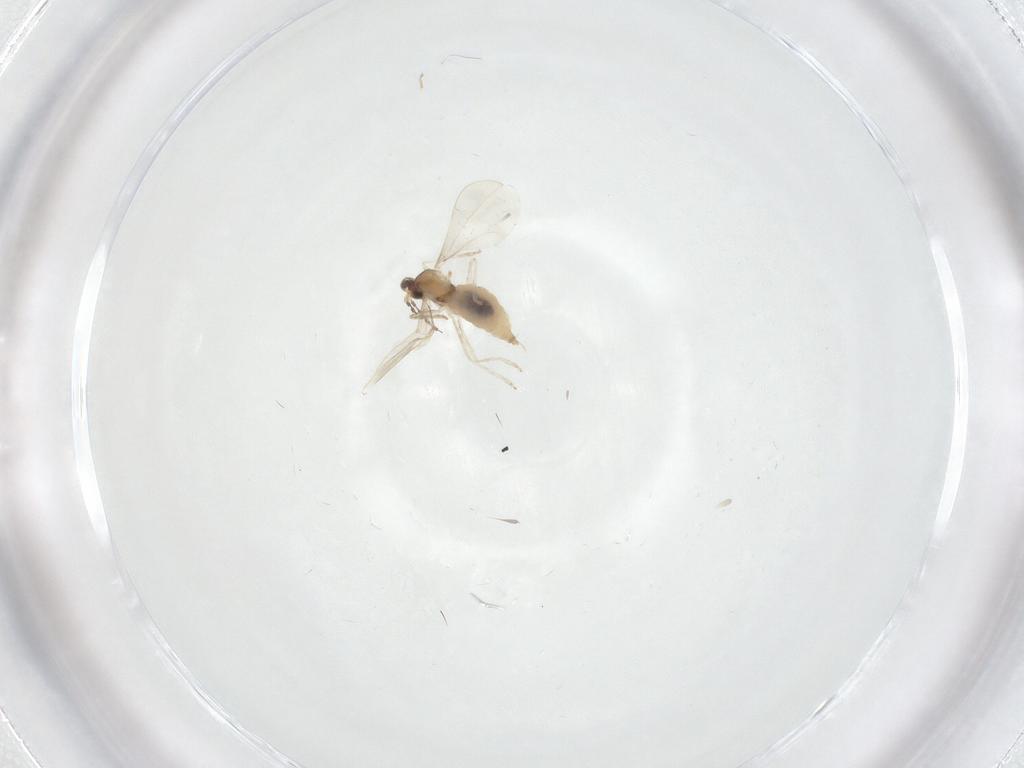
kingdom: Animalia
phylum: Arthropoda
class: Insecta
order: Diptera
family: Cecidomyiidae
